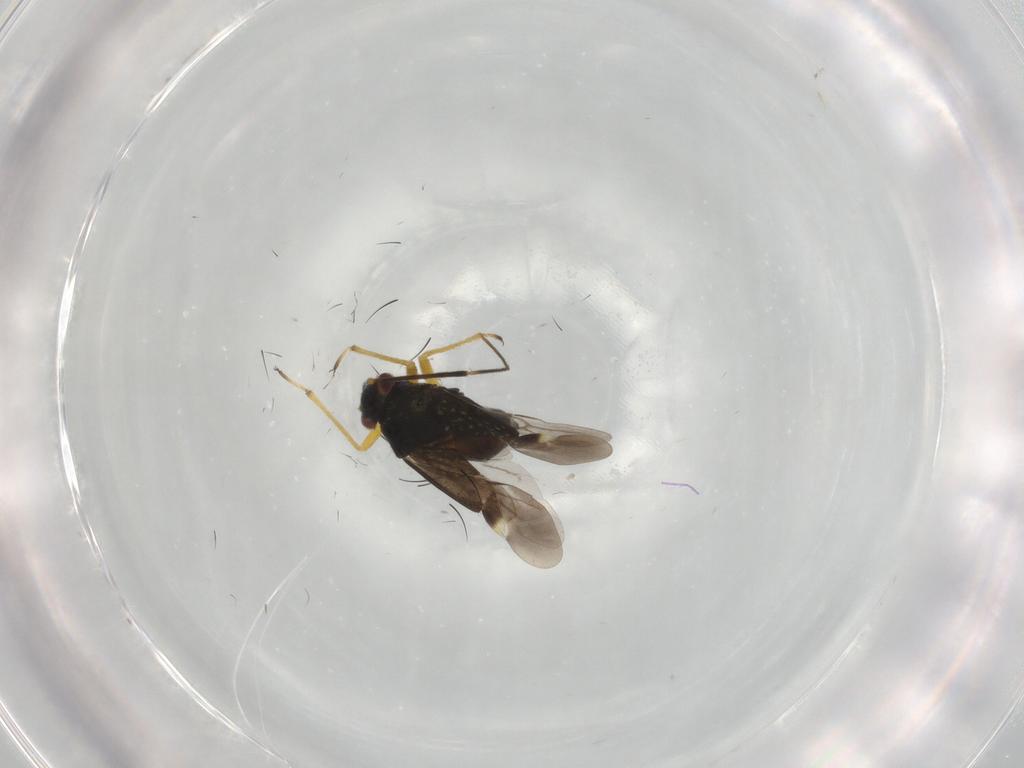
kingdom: Animalia
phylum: Arthropoda
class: Insecta
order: Hemiptera
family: Miridae
